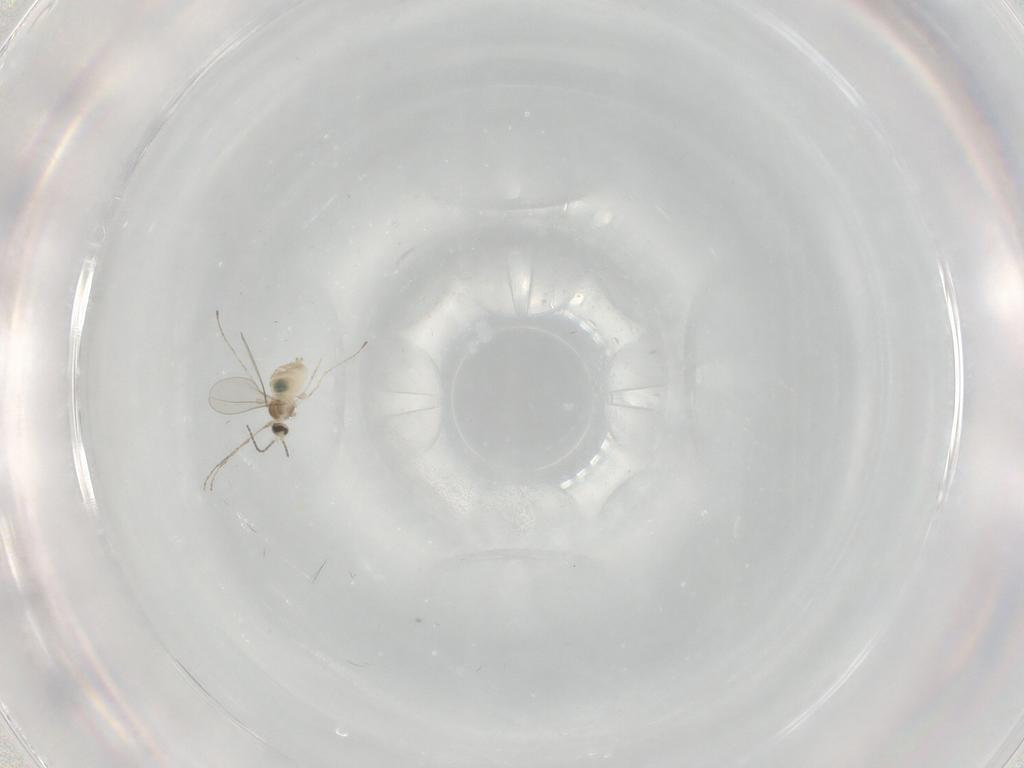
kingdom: Animalia
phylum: Arthropoda
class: Insecta
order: Diptera
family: Cecidomyiidae
